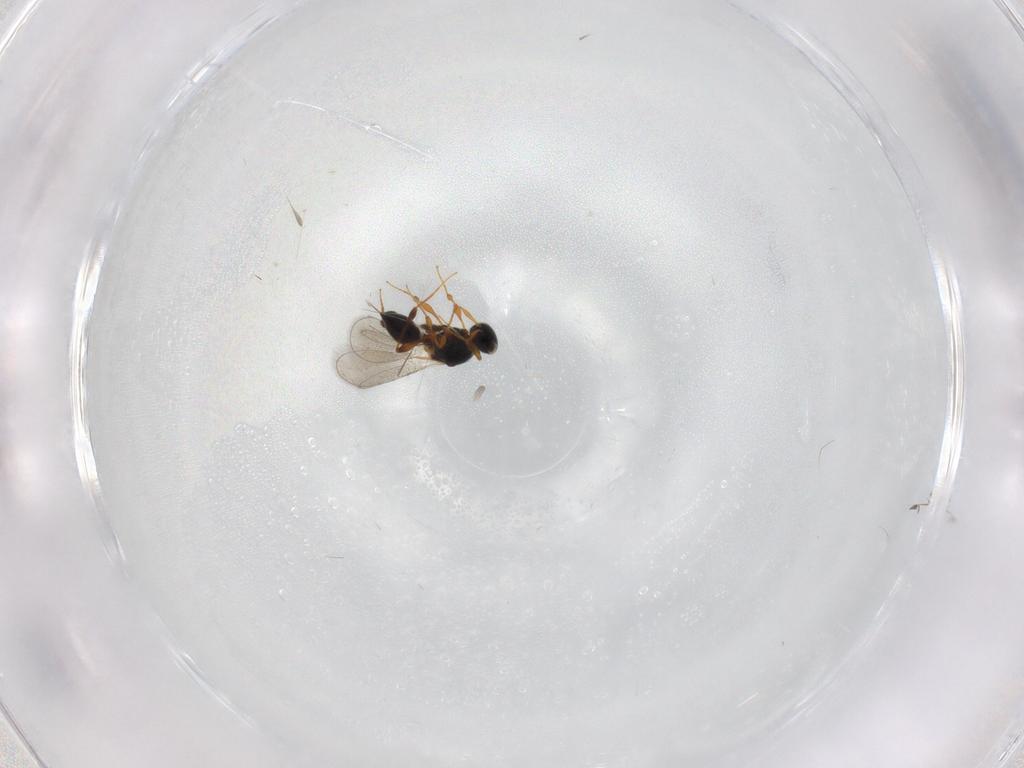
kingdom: Animalia
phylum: Arthropoda
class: Insecta
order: Hymenoptera
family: Platygastridae
